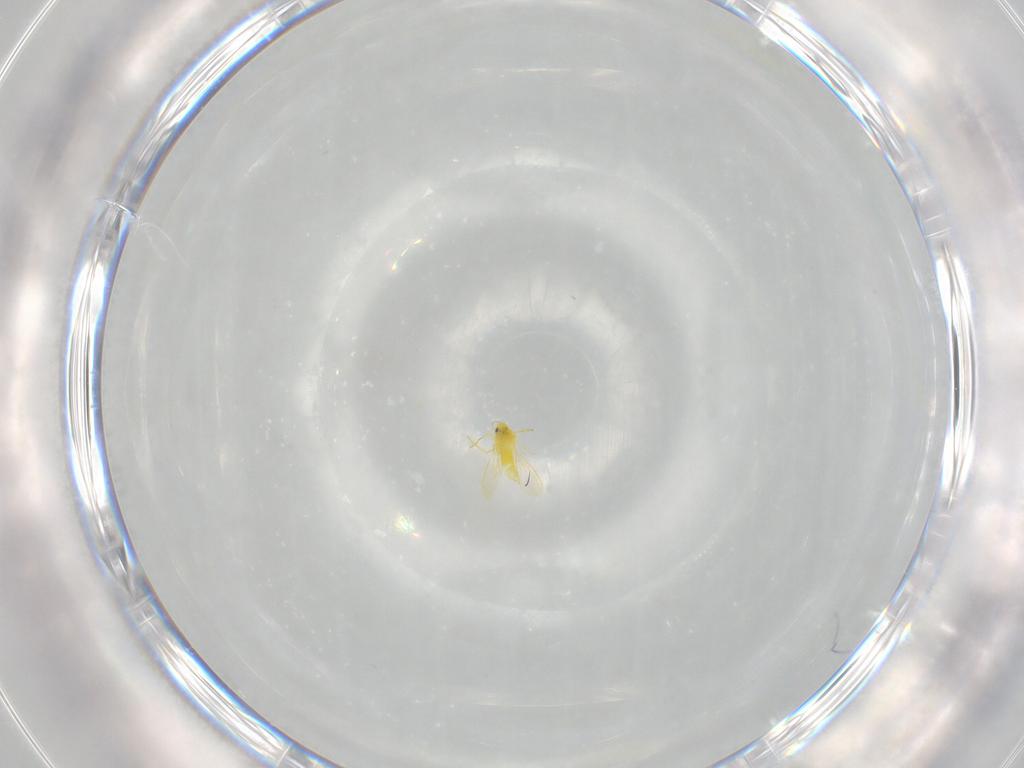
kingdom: Animalia
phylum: Arthropoda
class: Insecta
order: Hemiptera
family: Aleyrodidae
